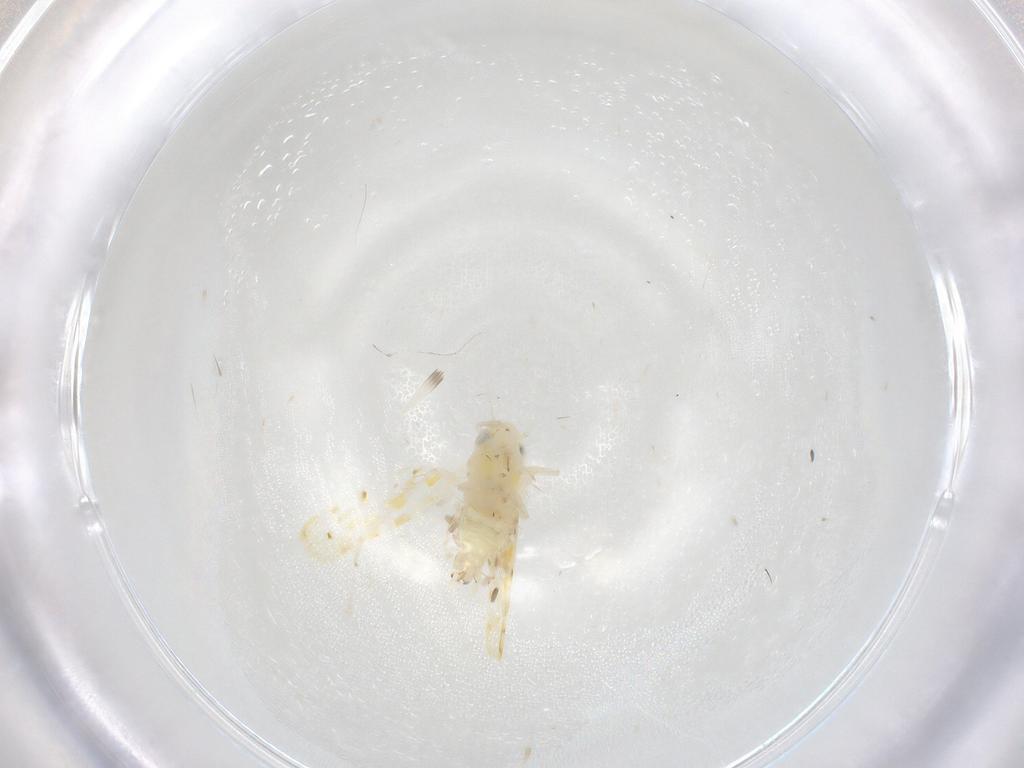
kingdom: Animalia
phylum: Arthropoda
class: Insecta
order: Hemiptera
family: Cicadellidae
